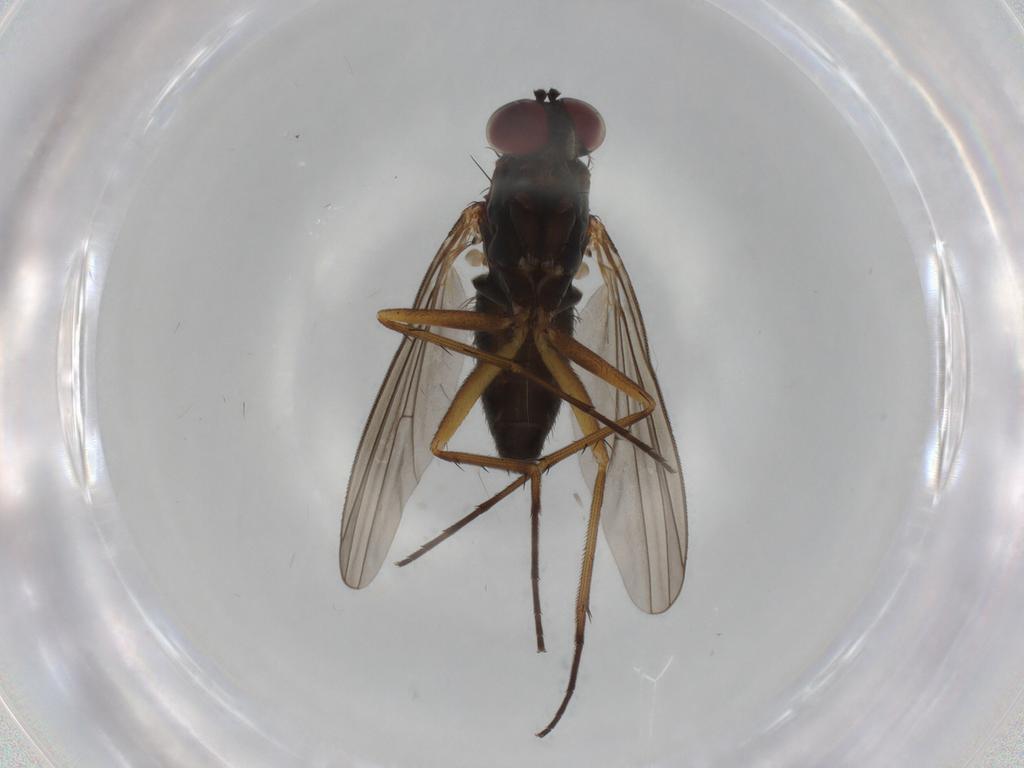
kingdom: Animalia
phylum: Arthropoda
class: Insecta
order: Diptera
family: Dolichopodidae
